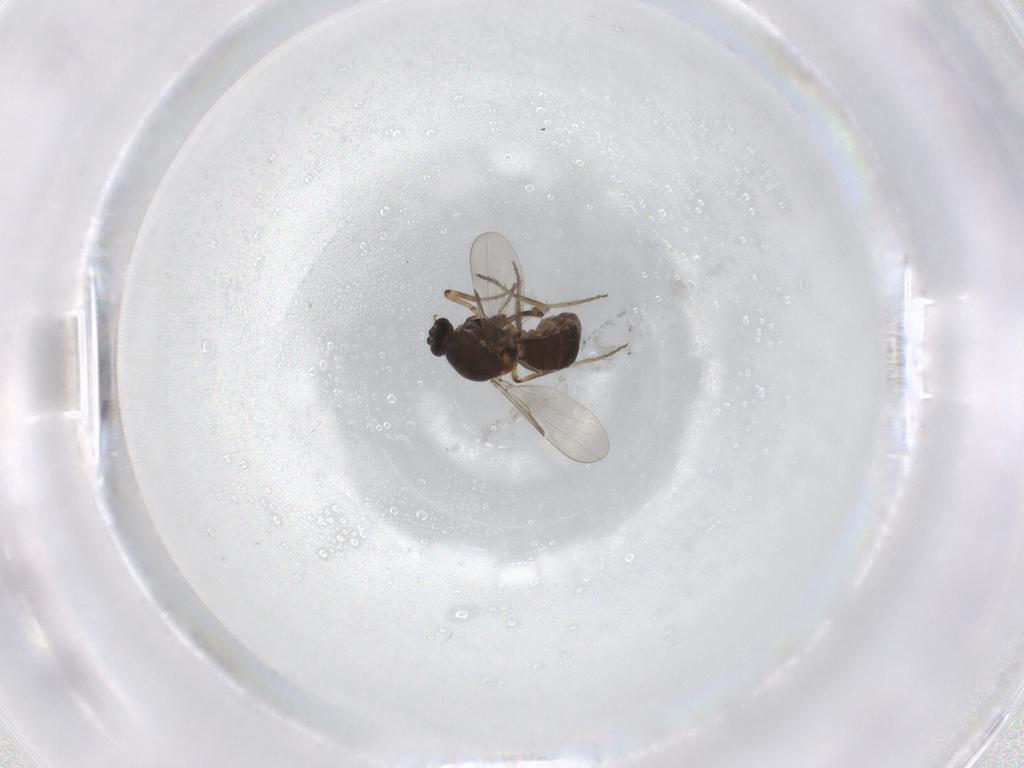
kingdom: Animalia
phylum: Arthropoda
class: Insecta
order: Diptera
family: Ceratopogonidae
